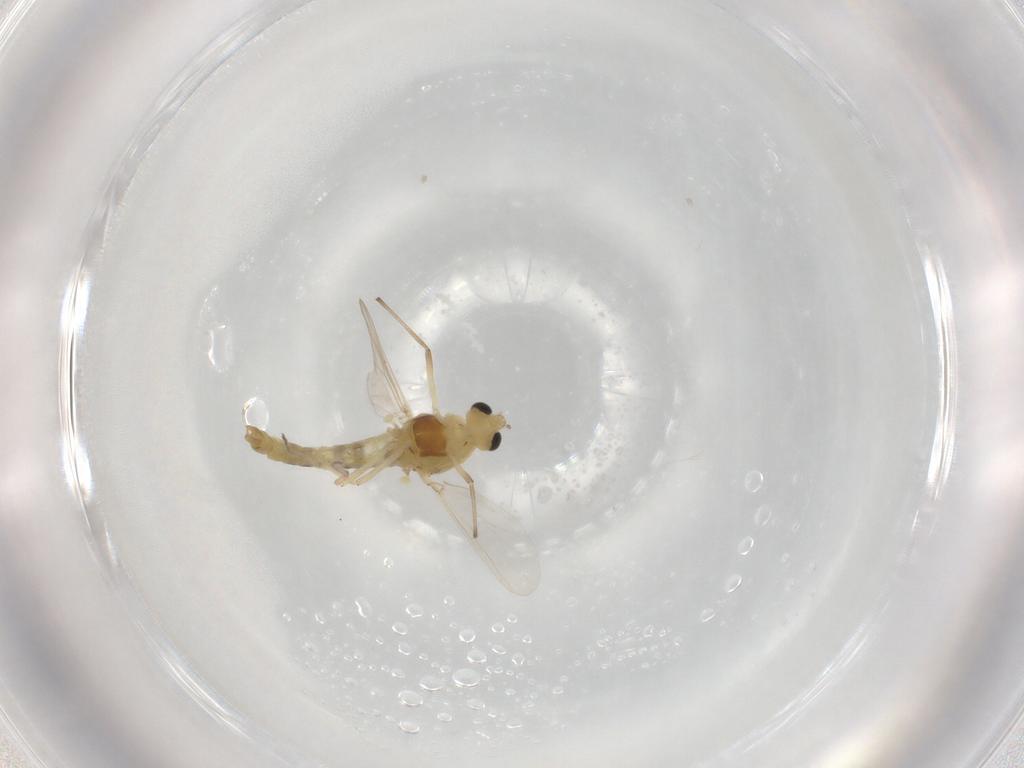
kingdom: Animalia
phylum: Arthropoda
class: Insecta
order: Diptera
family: Chironomidae
